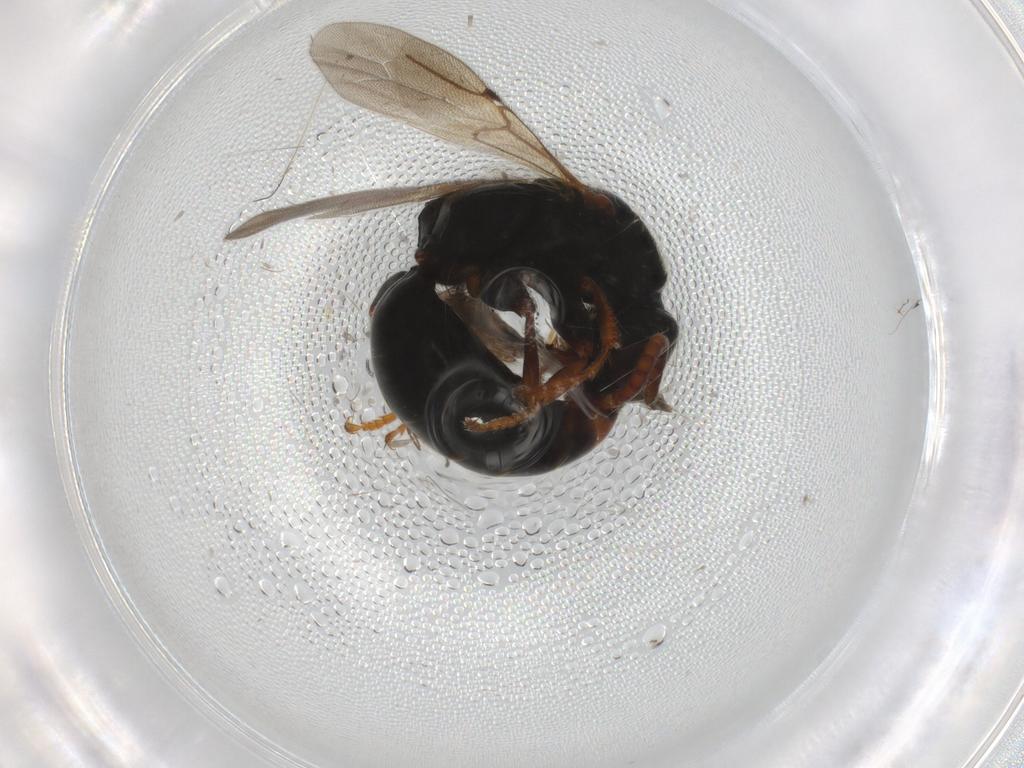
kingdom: Animalia
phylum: Arthropoda
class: Insecta
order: Hymenoptera
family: Bethylidae
